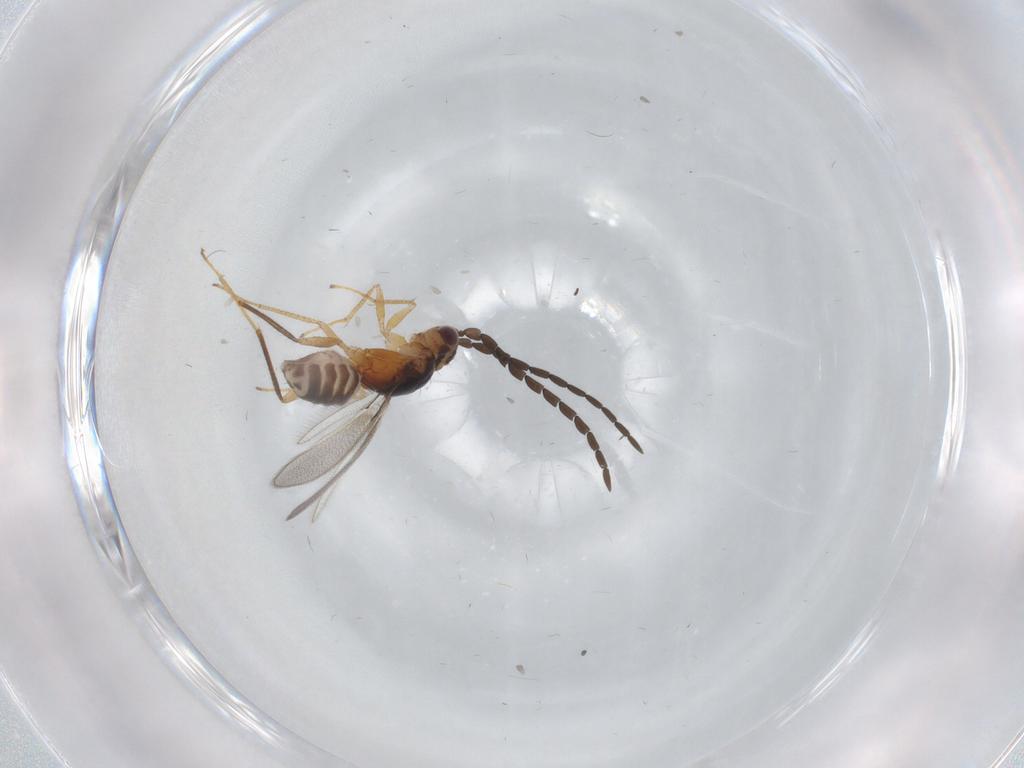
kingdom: Animalia
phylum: Arthropoda
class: Insecta
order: Hymenoptera
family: Mymaridae
